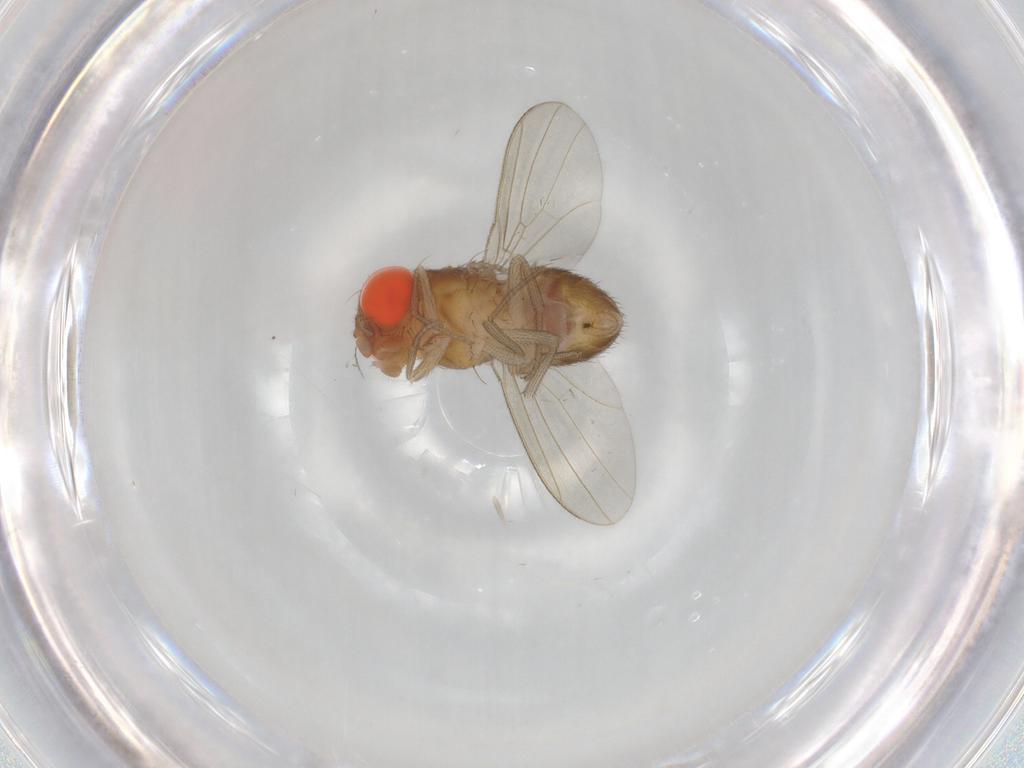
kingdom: Animalia
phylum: Arthropoda
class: Insecta
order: Diptera
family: Drosophilidae
